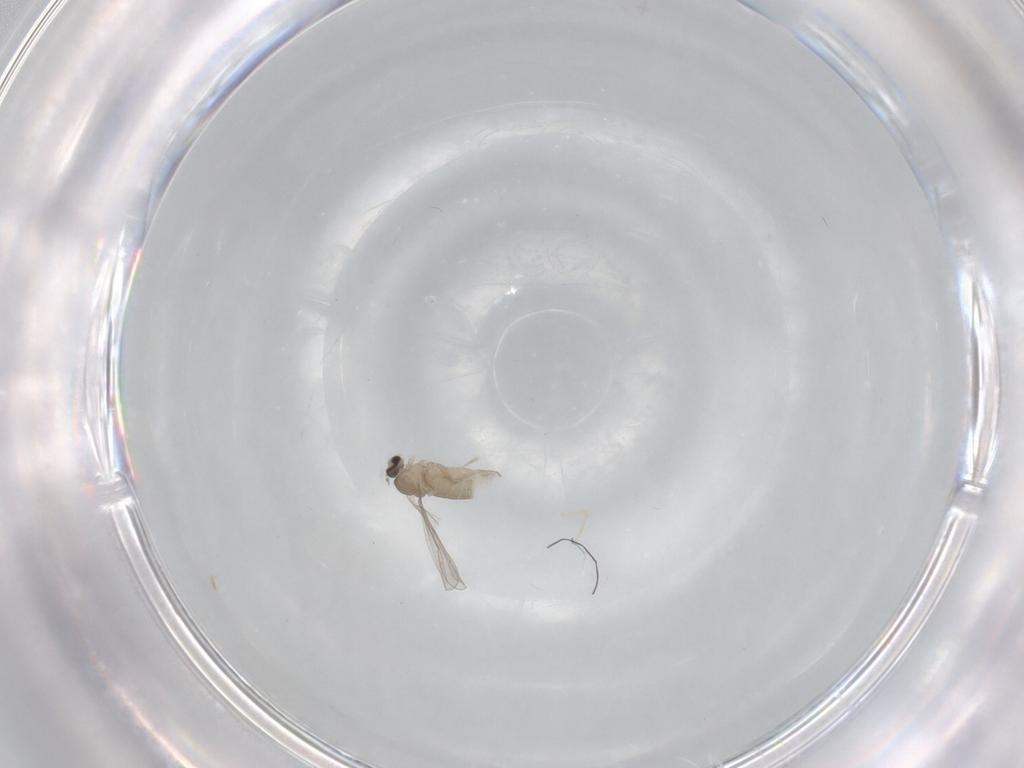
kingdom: Animalia
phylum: Arthropoda
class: Insecta
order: Diptera
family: Cecidomyiidae
